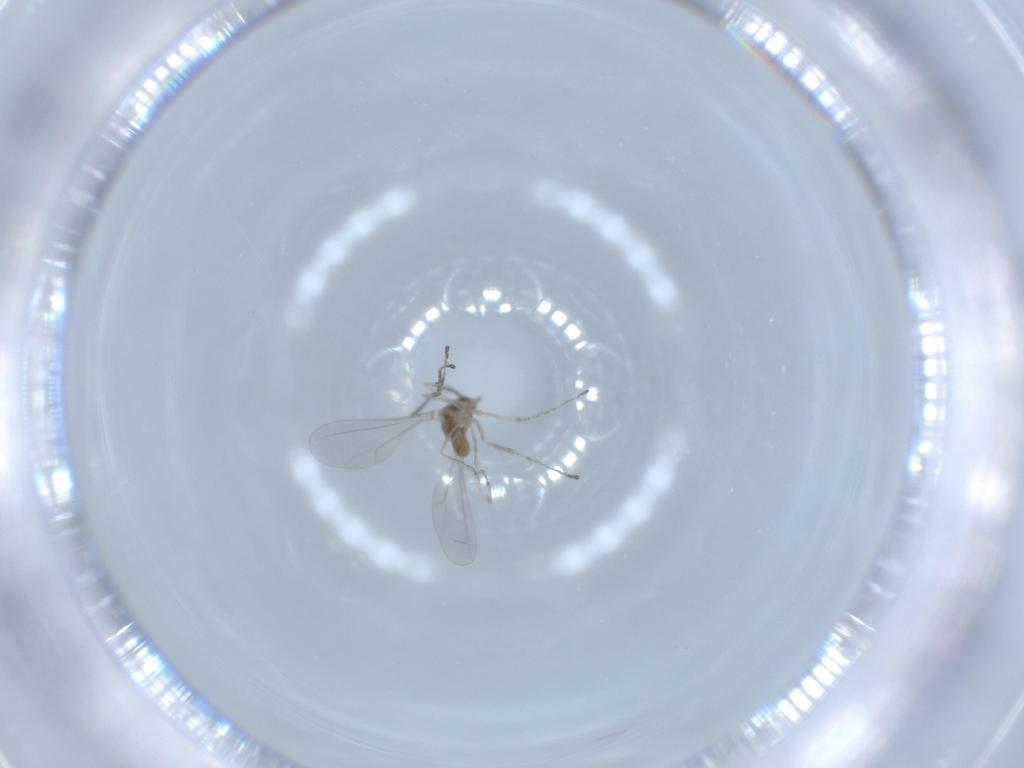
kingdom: Animalia
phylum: Arthropoda
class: Insecta
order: Diptera
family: Cecidomyiidae
